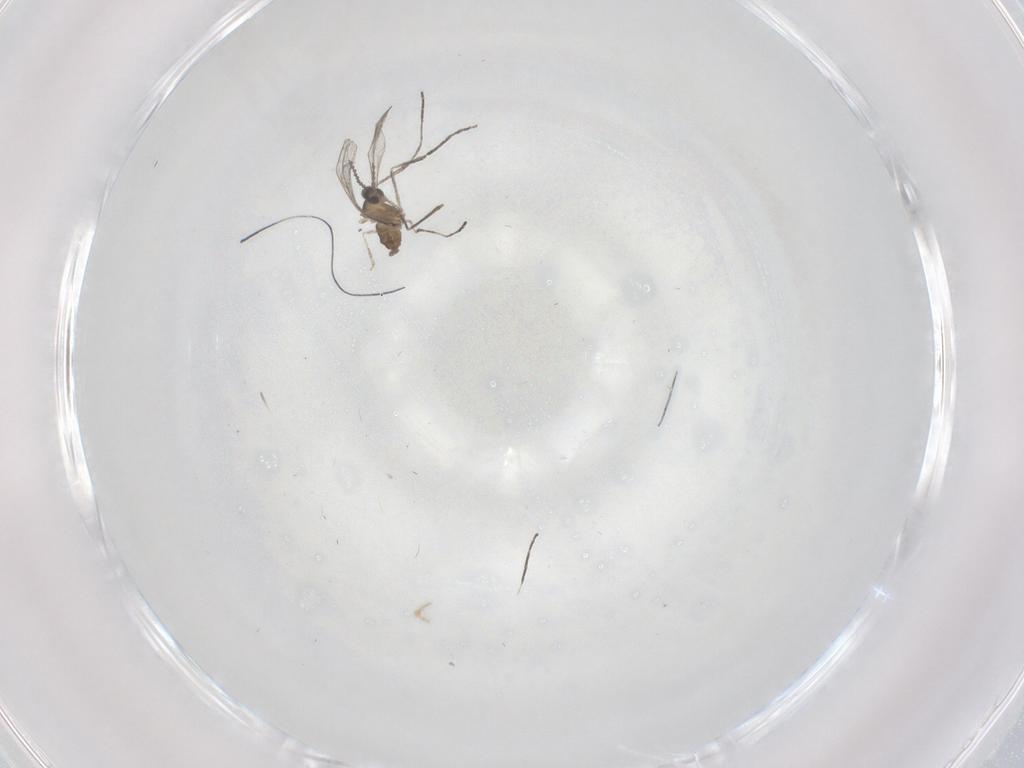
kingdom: Animalia
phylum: Arthropoda
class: Insecta
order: Diptera
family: Cecidomyiidae
